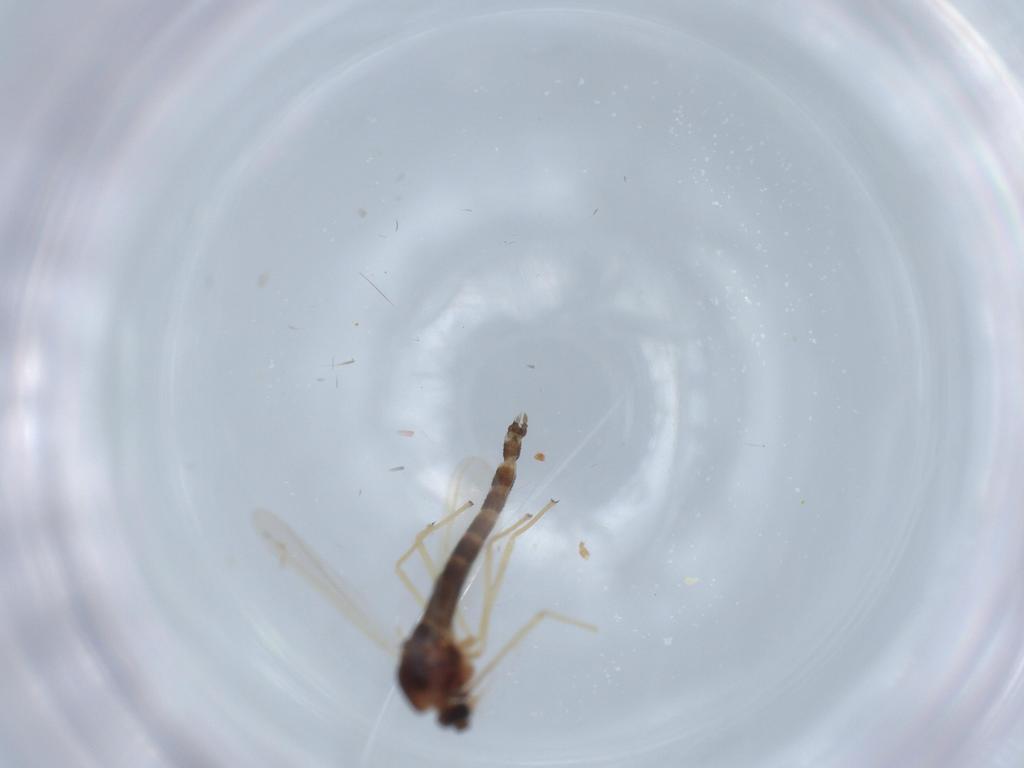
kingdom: Animalia
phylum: Arthropoda
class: Insecta
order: Diptera
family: Chironomidae
